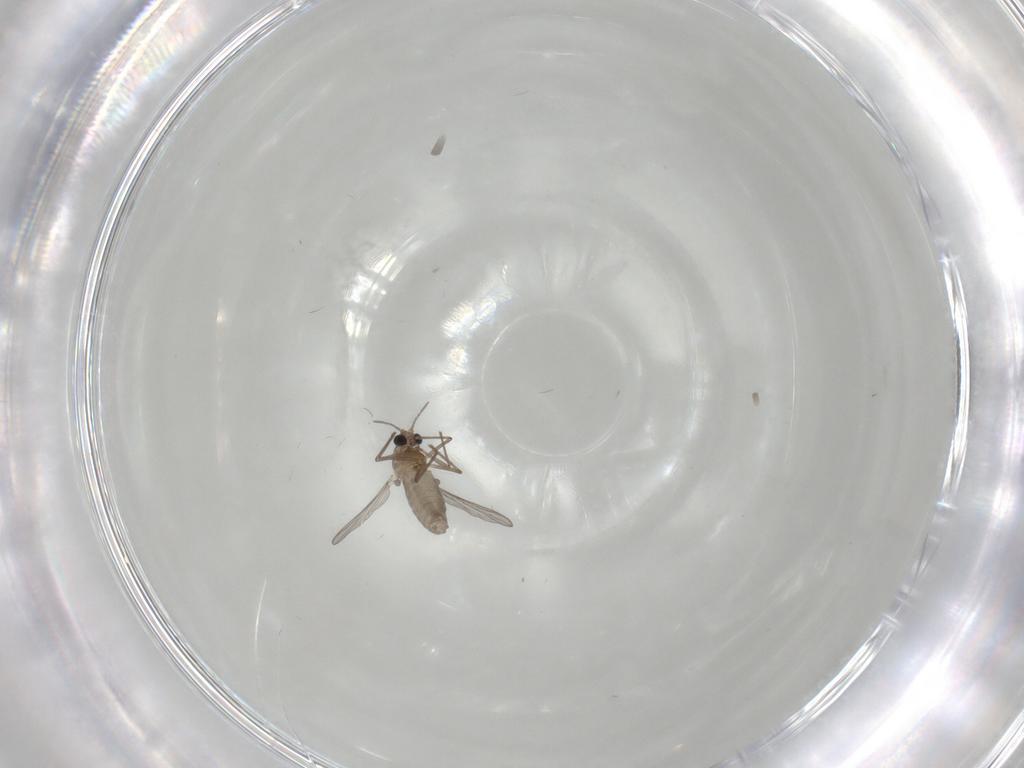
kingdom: Animalia
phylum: Arthropoda
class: Insecta
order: Diptera
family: Chironomidae
